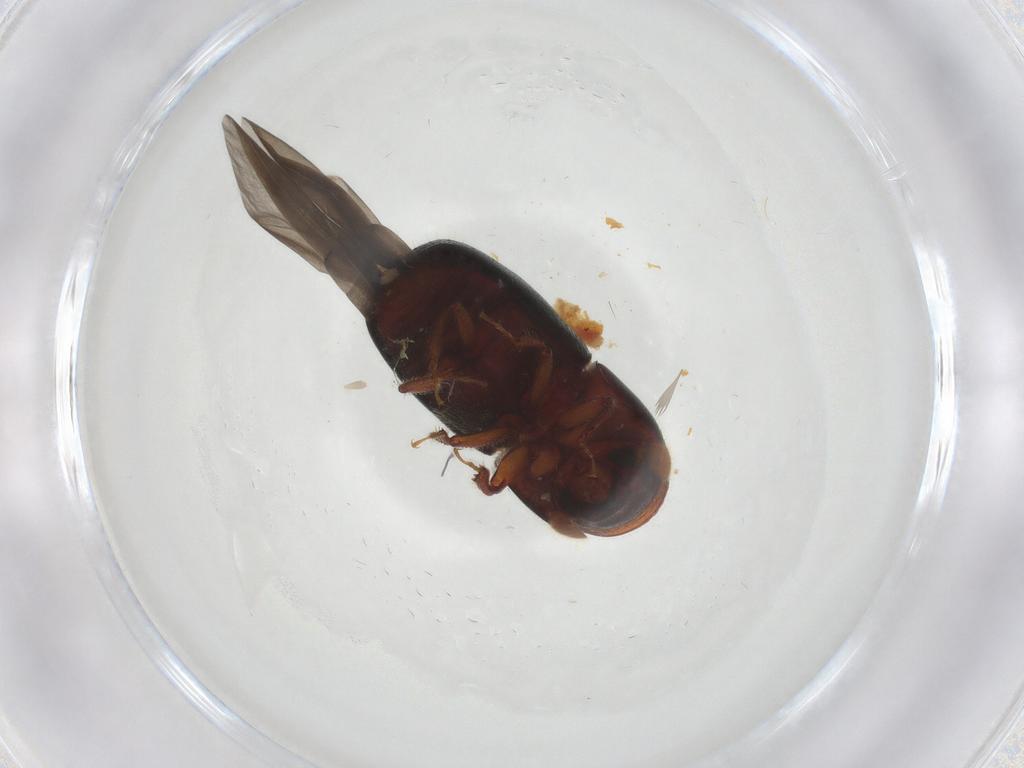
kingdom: Animalia
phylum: Arthropoda
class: Insecta
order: Coleoptera
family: Curculionidae
